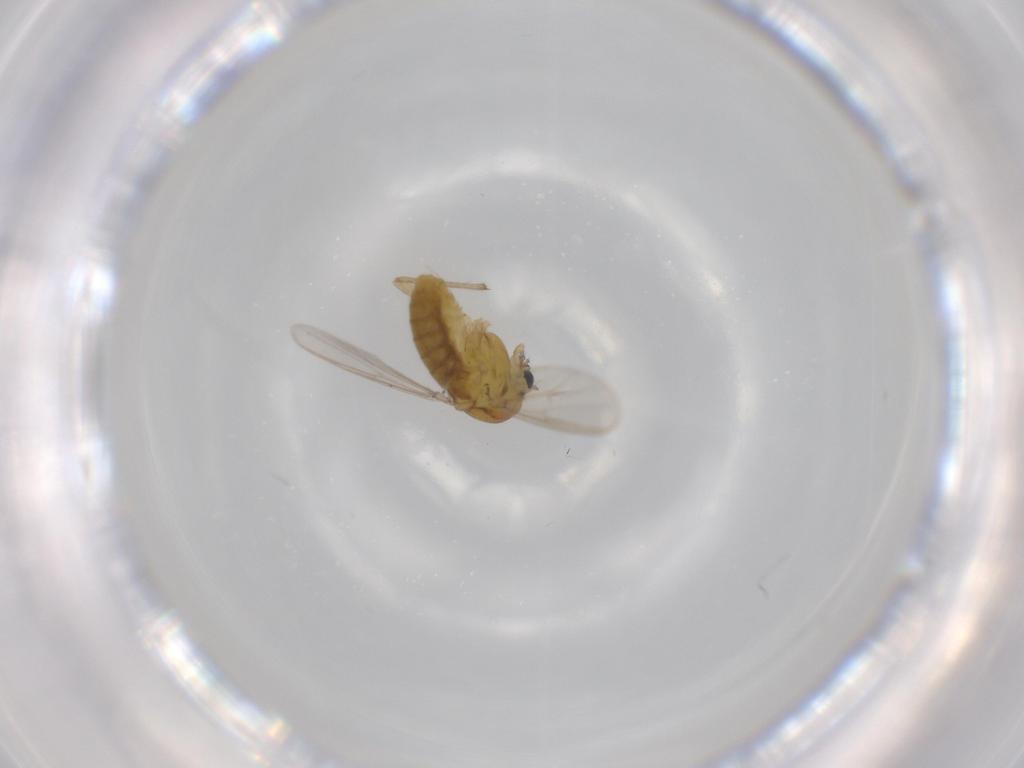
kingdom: Animalia
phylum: Arthropoda
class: Insecta
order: Diptera
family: Chironomidae
